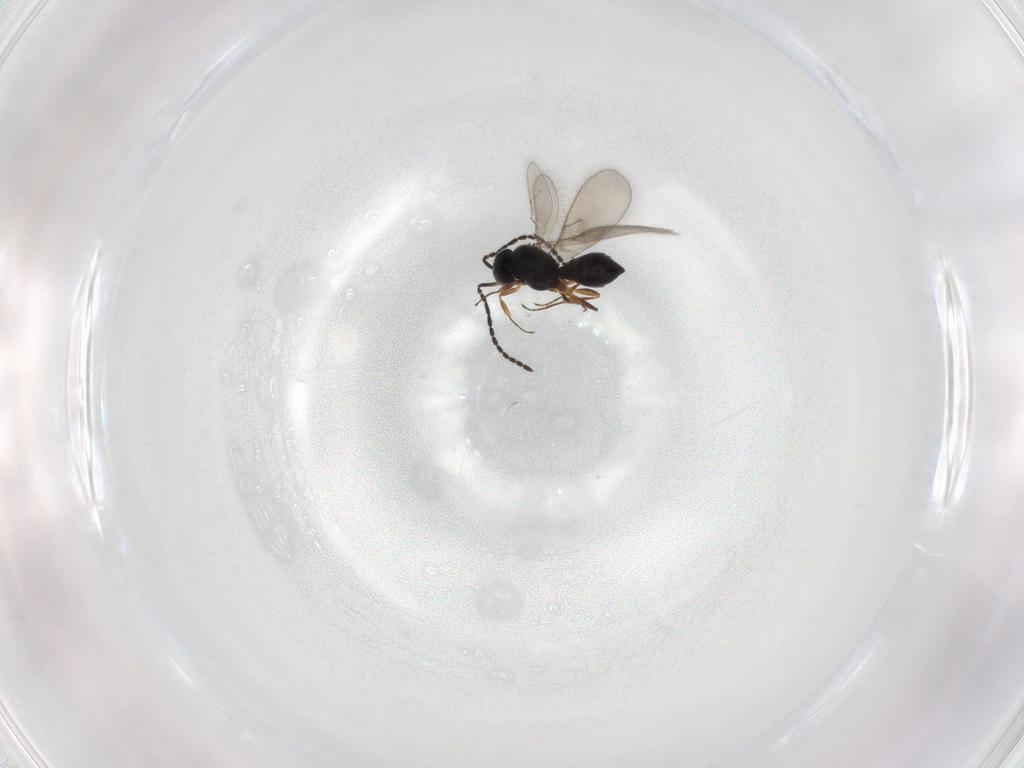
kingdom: Animalia
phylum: Arthropoda
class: Insecta
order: Hymenoptera
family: Scelionidae
